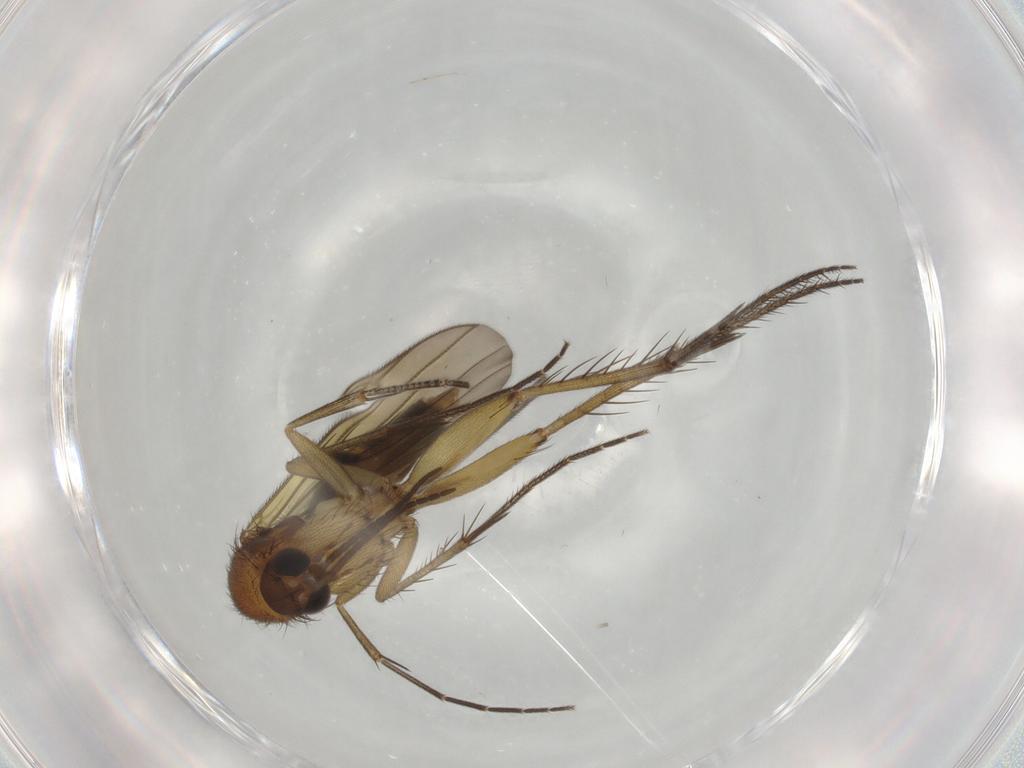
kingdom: Animalia
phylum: Arthropoda
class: Insecta
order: Diptera
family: Chironomidae
